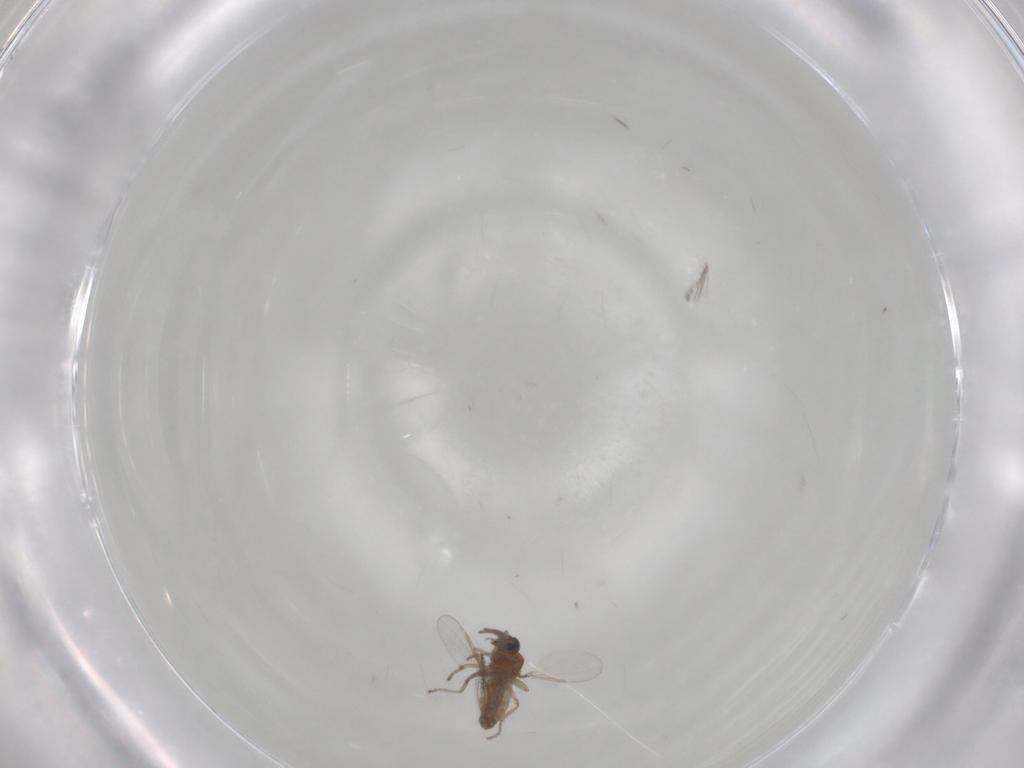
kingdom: Animalia
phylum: Arthropoda
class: Insecta
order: Diptera
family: Ceratopogonidae
